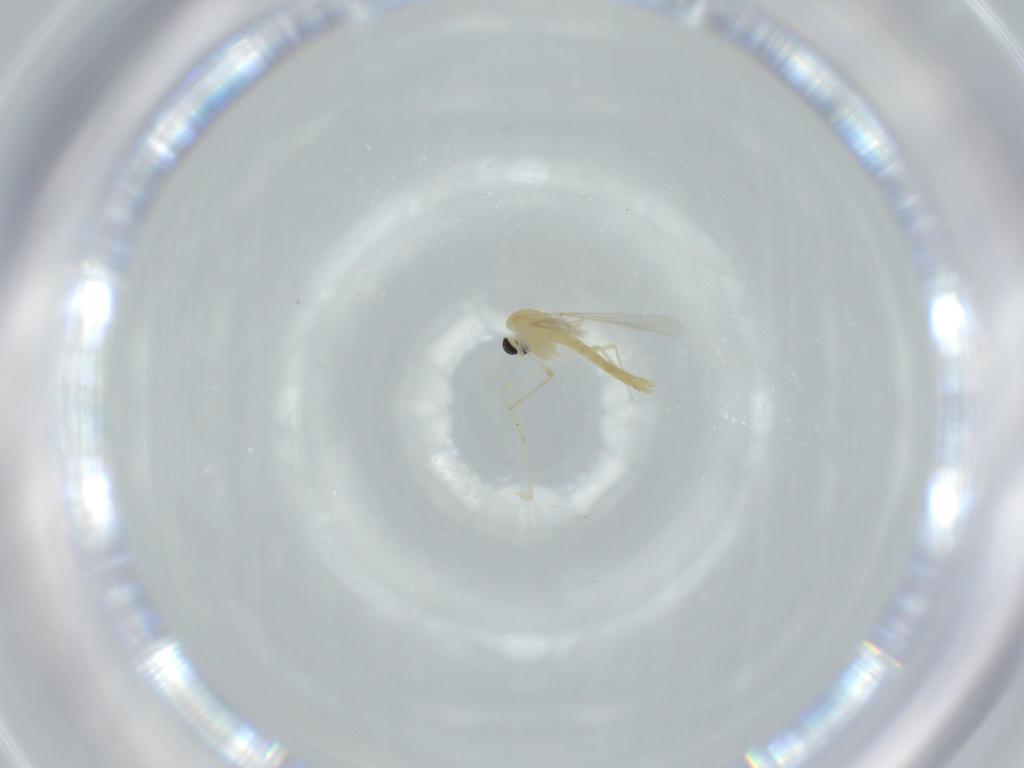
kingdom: Animalia
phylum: Arthropoda
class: Insecta
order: Diptera
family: Chironomidae
